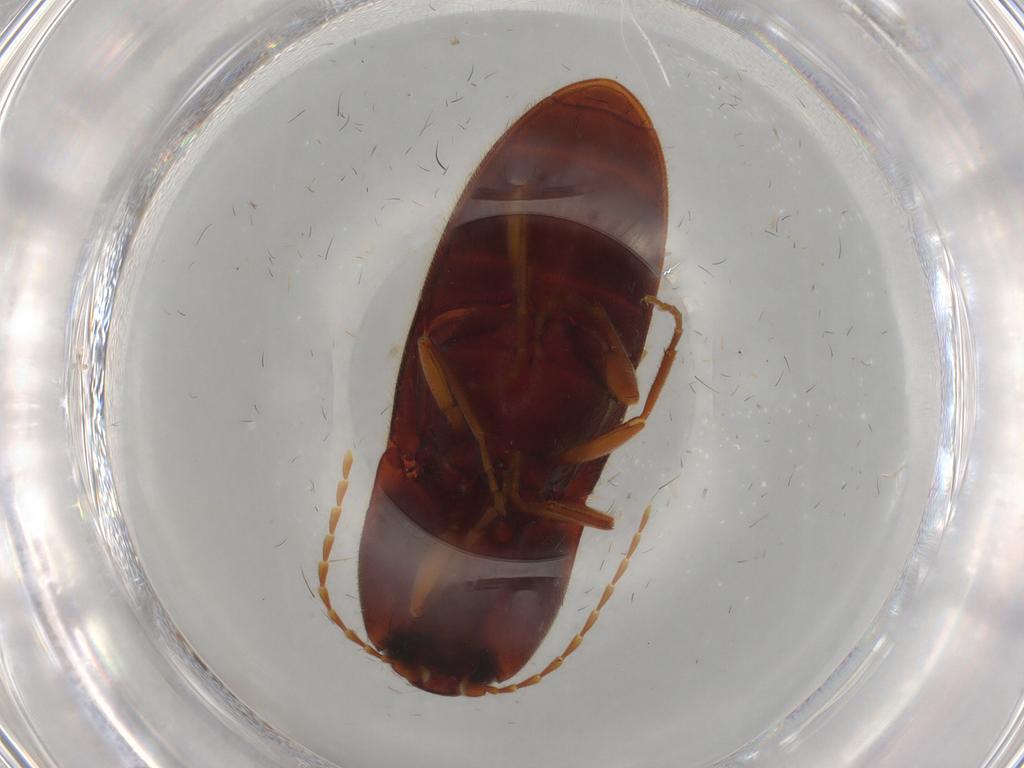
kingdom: Animalia
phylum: Arthropoda
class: Insecta
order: Coleoptera
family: Elateridae
